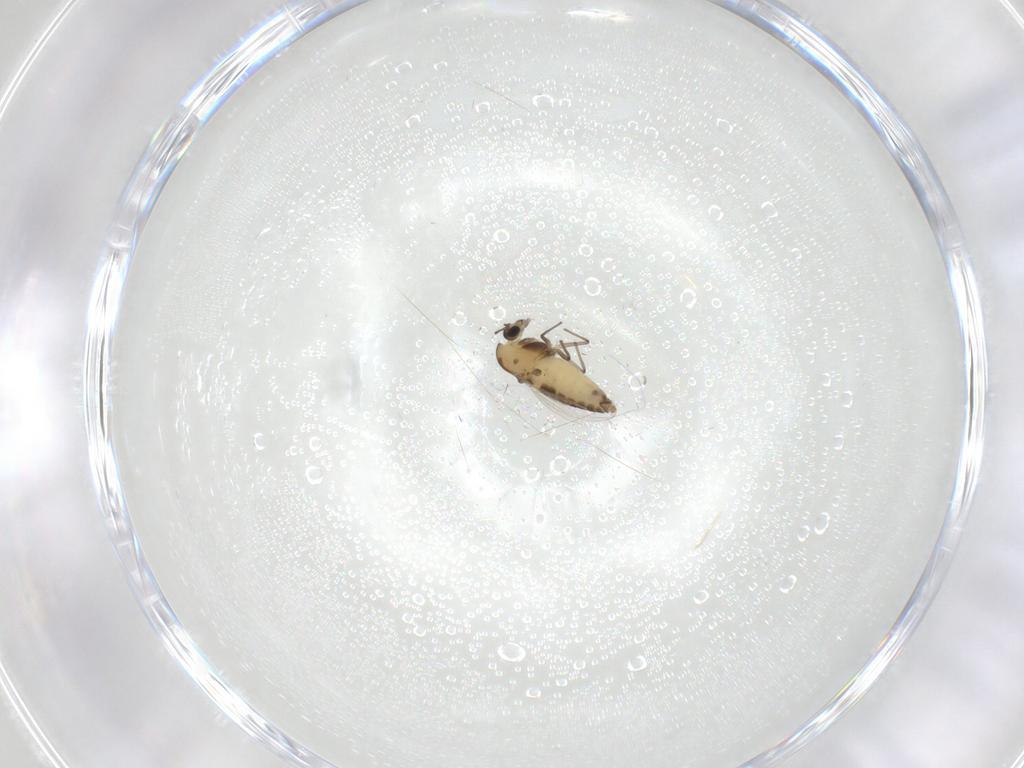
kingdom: Animalia
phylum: Arthropoda
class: Insecta
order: Diptera
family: Chironomidae
